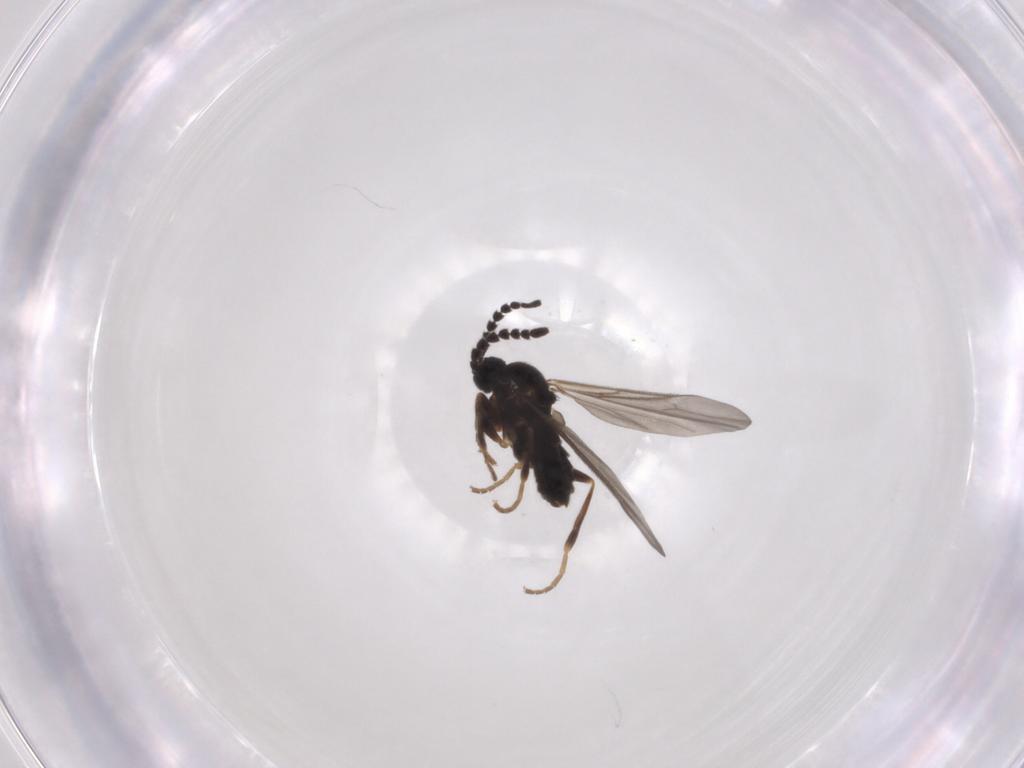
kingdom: Animalia
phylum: Arthropoda
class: Insecta
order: Diptera
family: Scatopsidae
